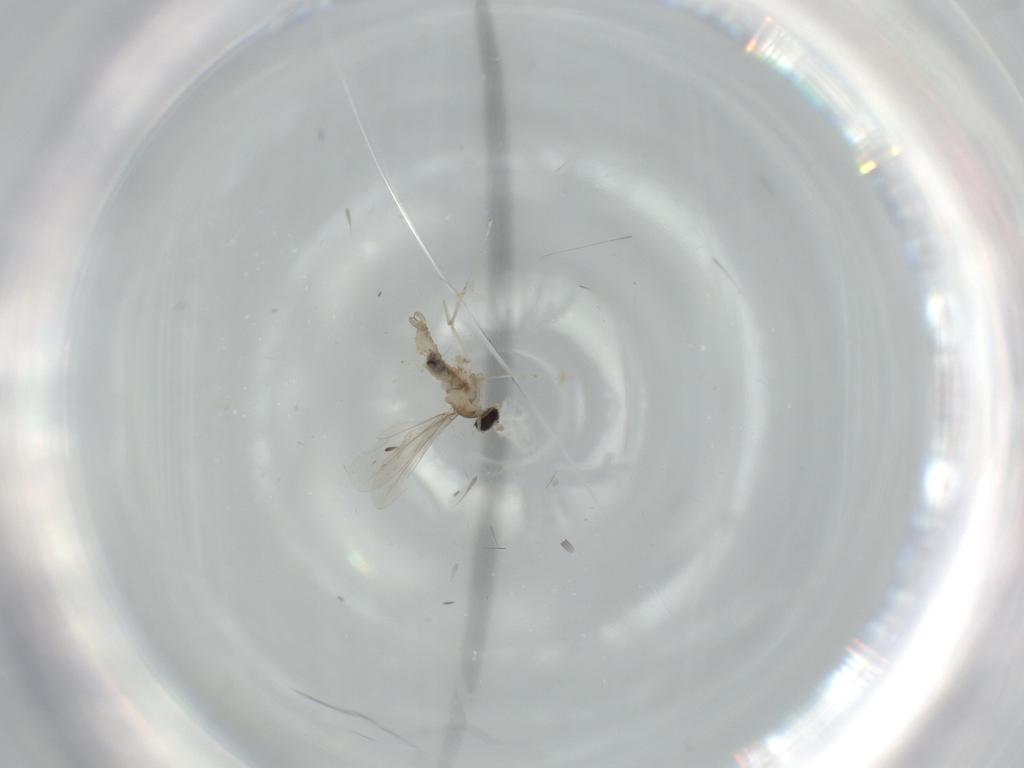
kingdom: Animalia
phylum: Arthropoda
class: Insecta
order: Diptera
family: Cecidomyiidae
